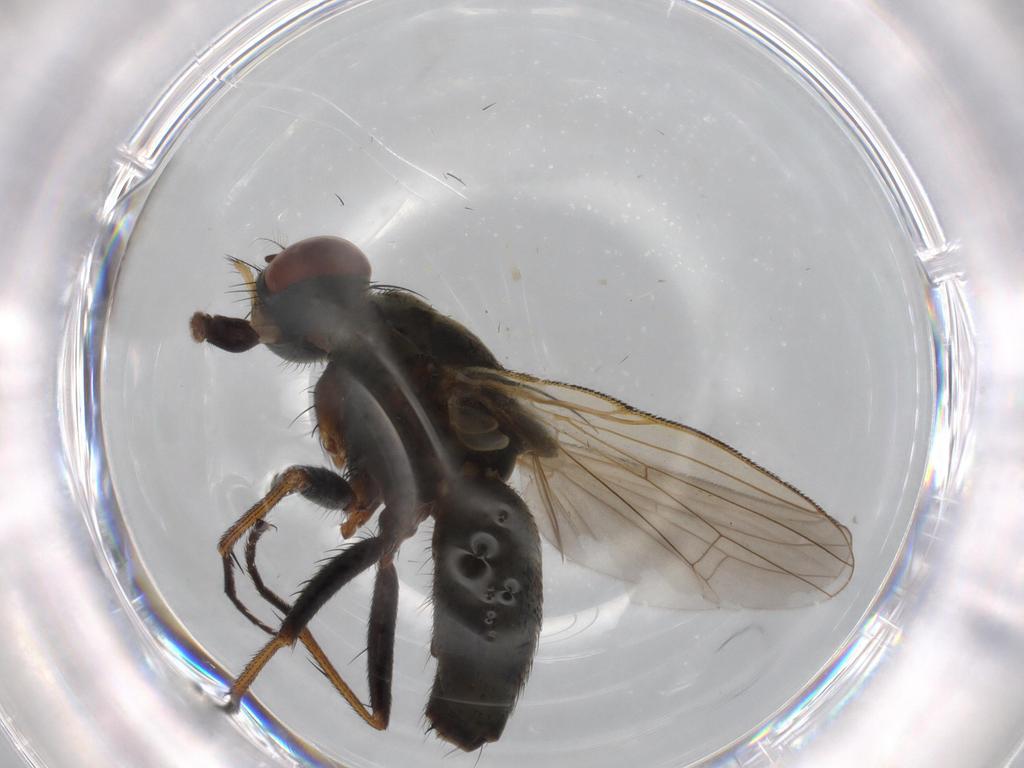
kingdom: Animalia
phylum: Arthropoda
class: Insecta
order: Diptera
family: Muscidae
